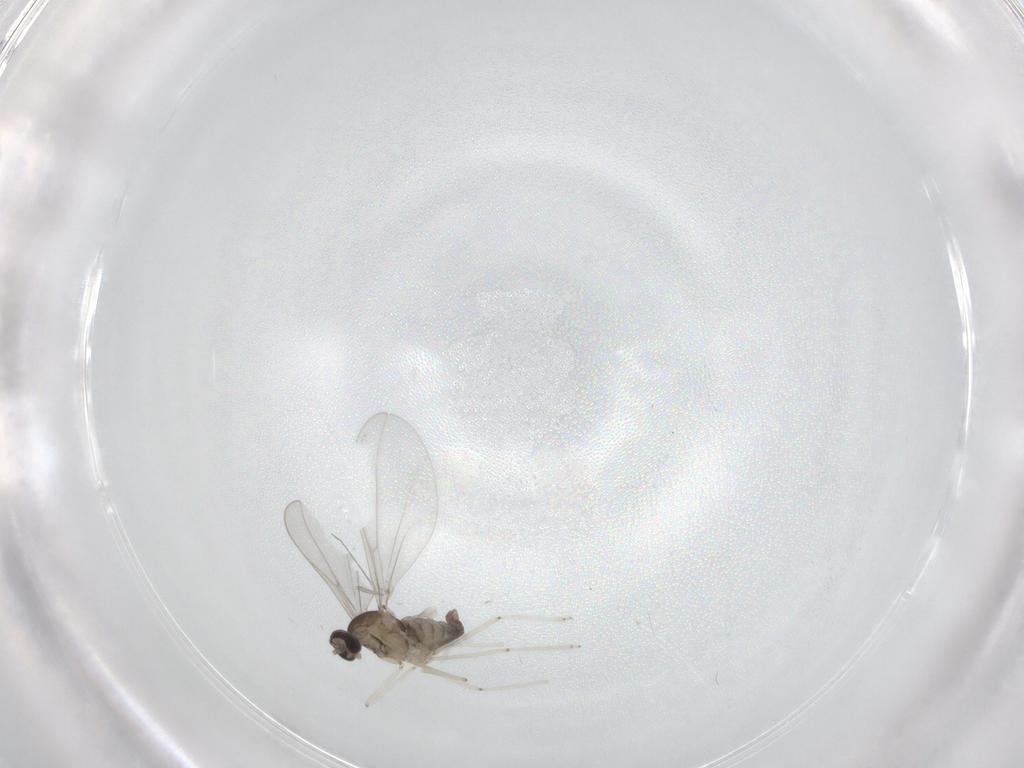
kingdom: Animalia
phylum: Arthropoda
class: Insecta
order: Diptera
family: Cecidomyiidae
